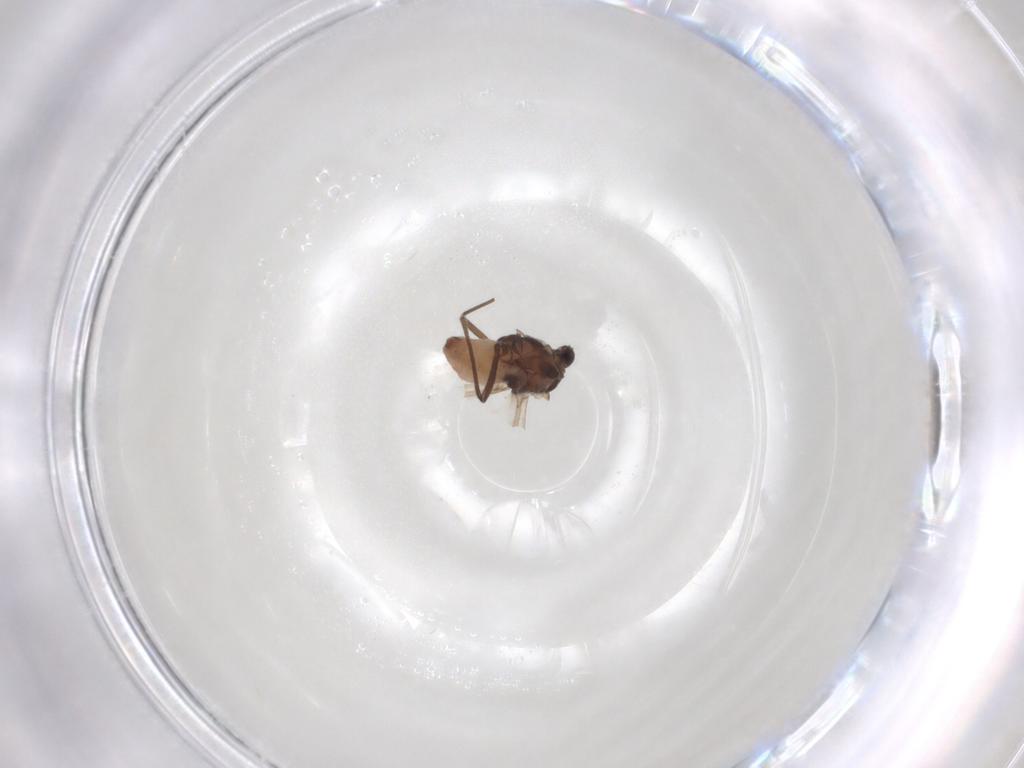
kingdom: Animalia
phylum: Arthropoda
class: Insecta
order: Hemiptera
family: Aphididae
